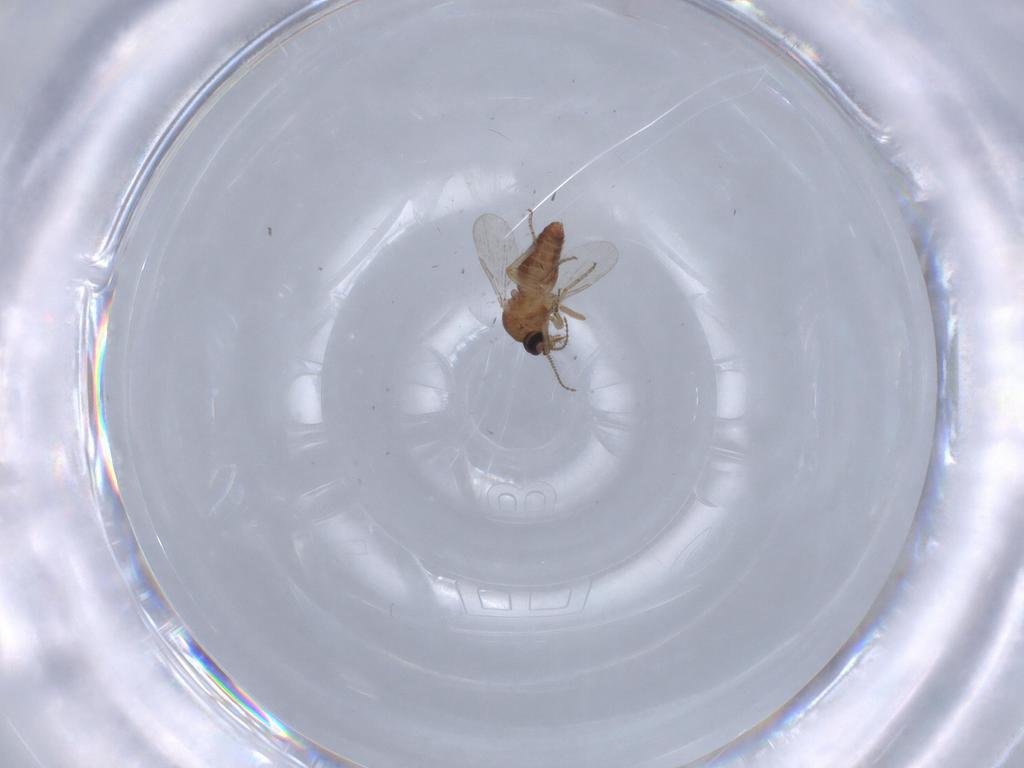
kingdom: Animalia
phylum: Arthropoda
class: Insecta
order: Diptera
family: Ceratopogonidae
